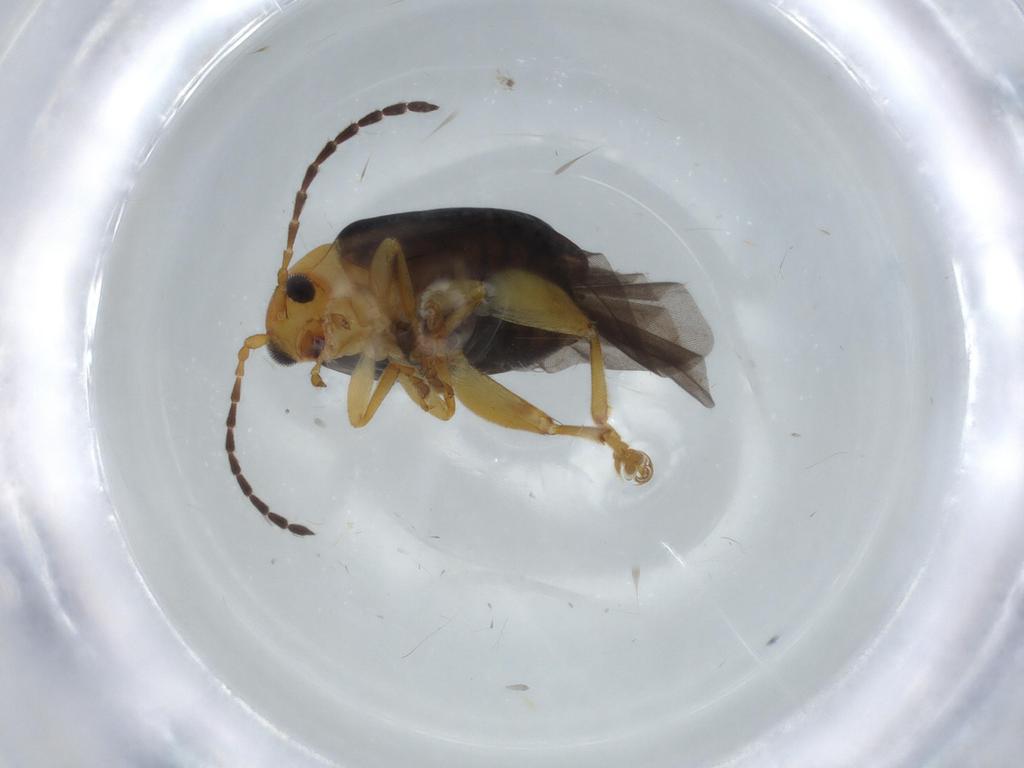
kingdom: Animalia
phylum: Arthropoda
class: Insecta
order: Coleoptera
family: Chrysomelidae
